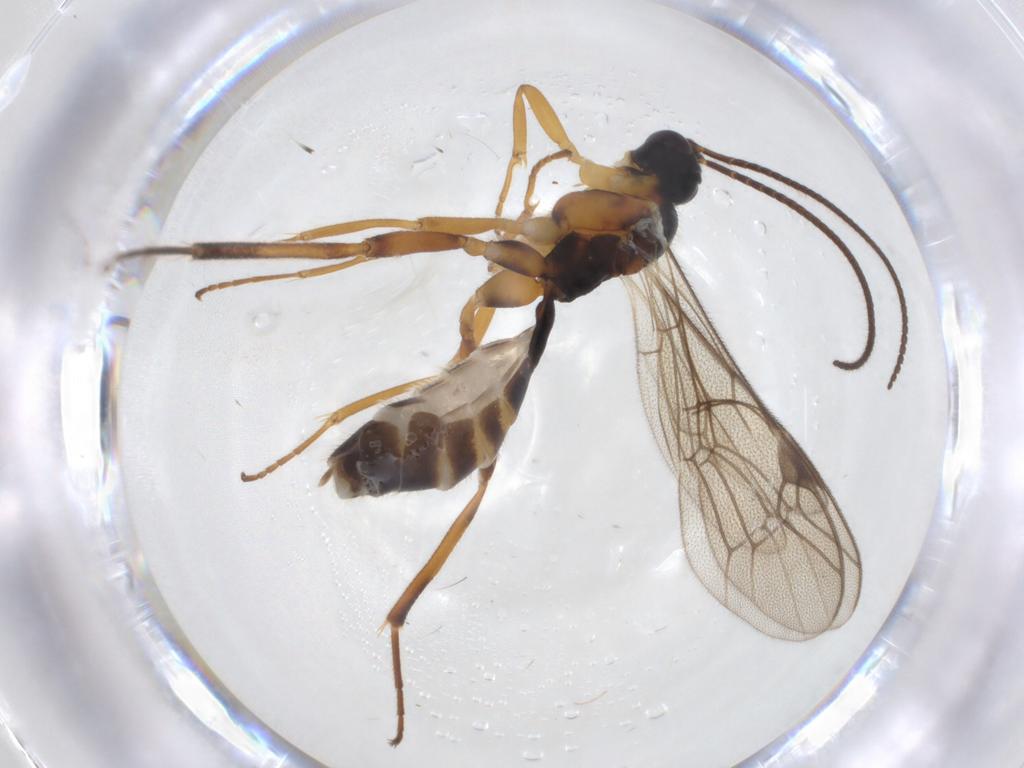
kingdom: Animalia
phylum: Arthropoda
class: Insecta
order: Hymenoptera
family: Ichneumonidae
